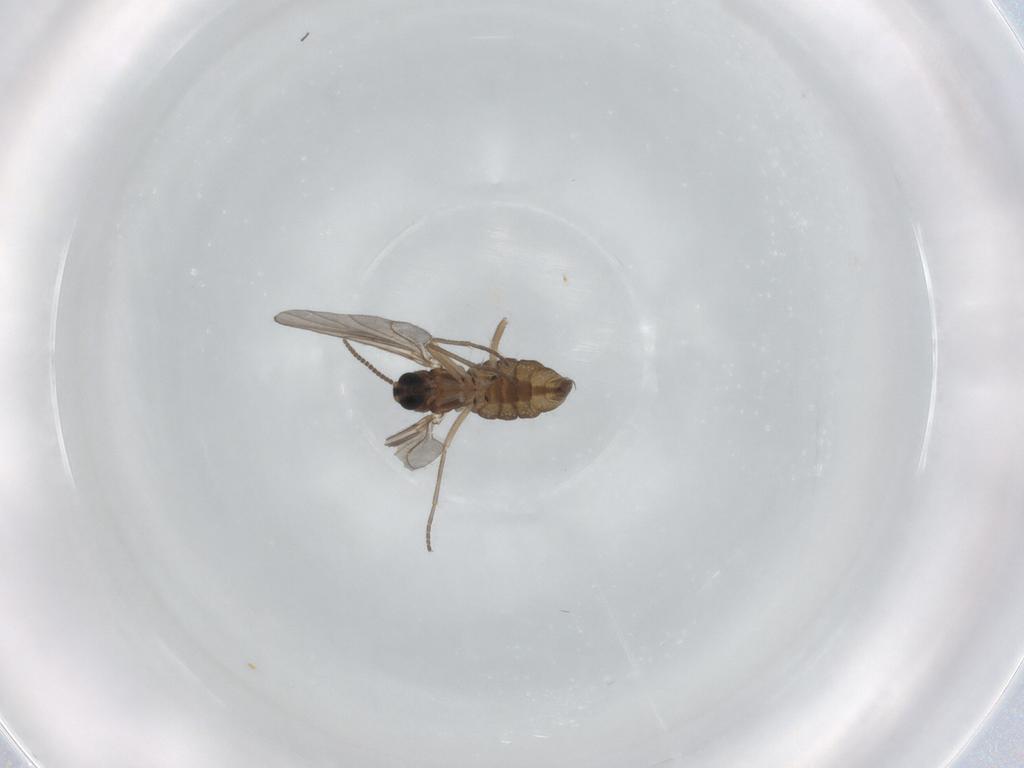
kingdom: Animalia
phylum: Arthropoda
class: Insecta
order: Diptera
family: Sciaridae
